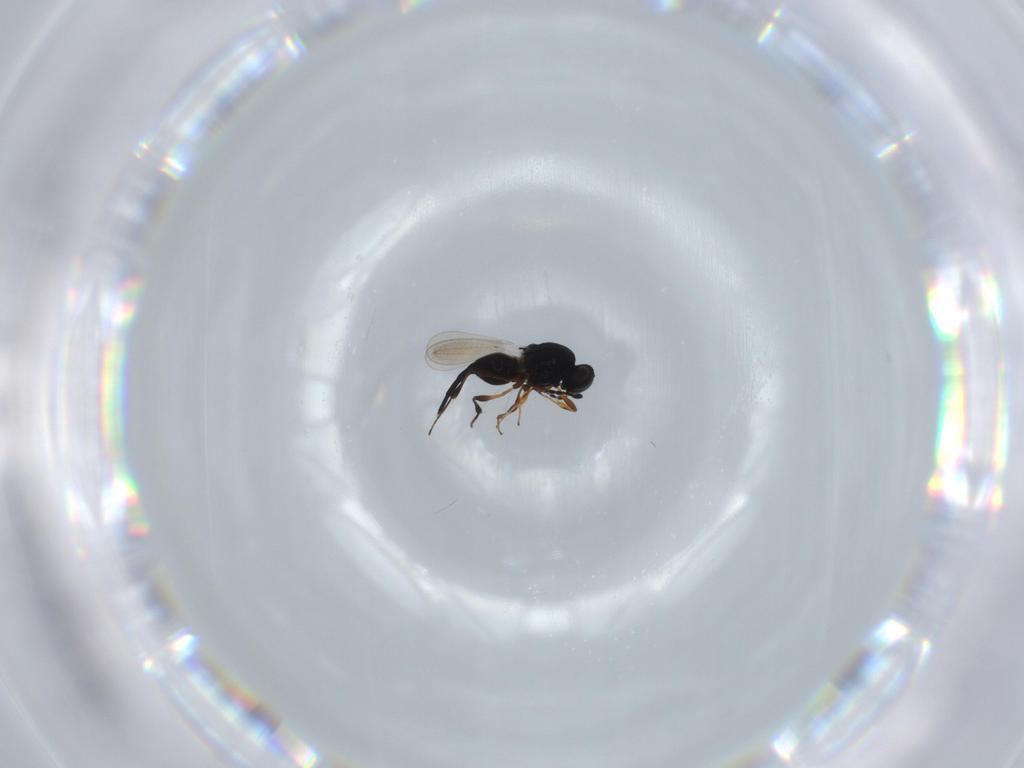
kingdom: Animalia
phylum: Arthropoda
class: Insecta
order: Hymenoptera
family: Platygastridae
